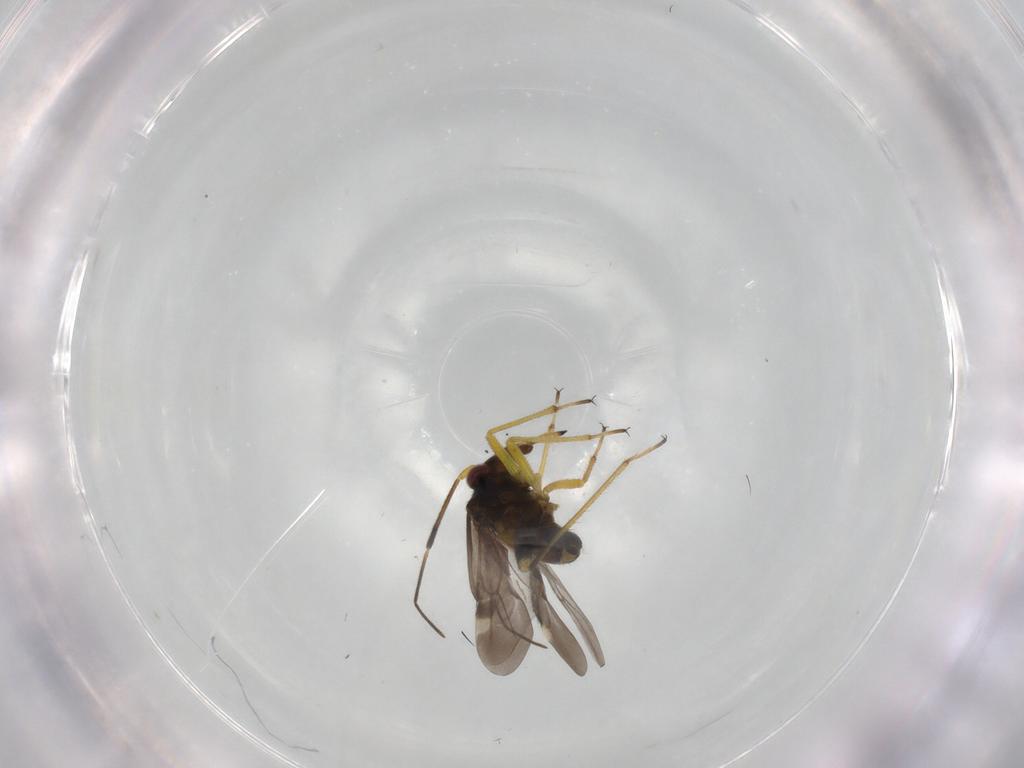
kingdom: Animalia
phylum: Arthropoda
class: Insecta
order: Hemiptera
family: Miridae
